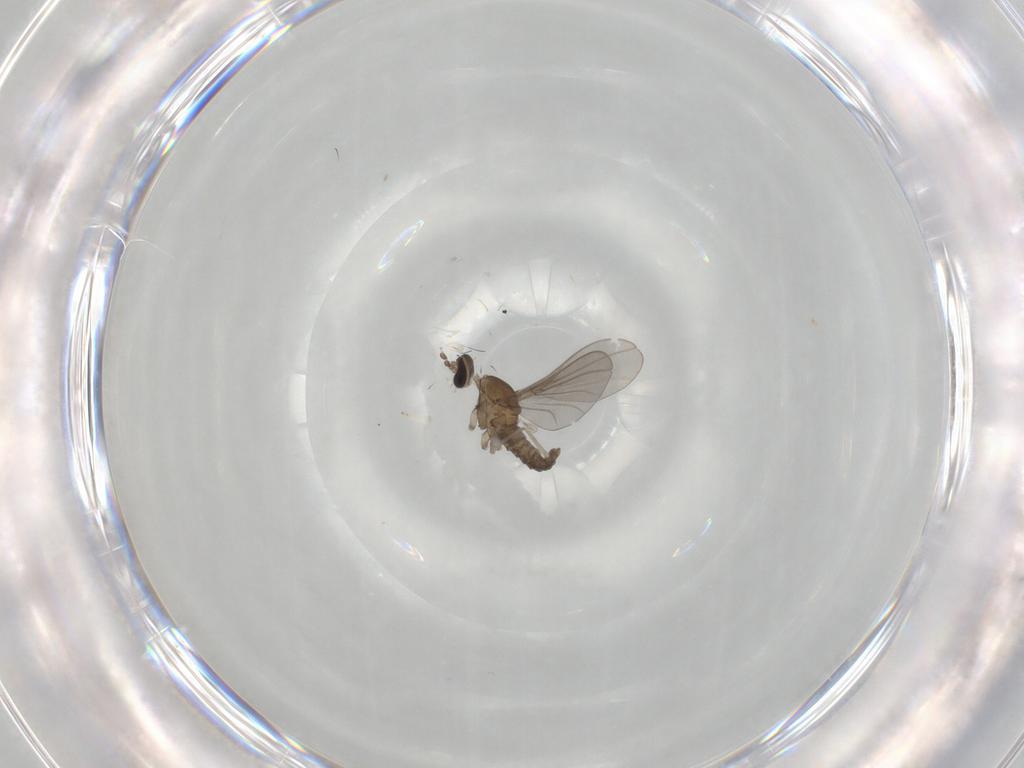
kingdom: Animalia
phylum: Arthropoda
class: Insecta
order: Diptera
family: Cecidomyiidae
